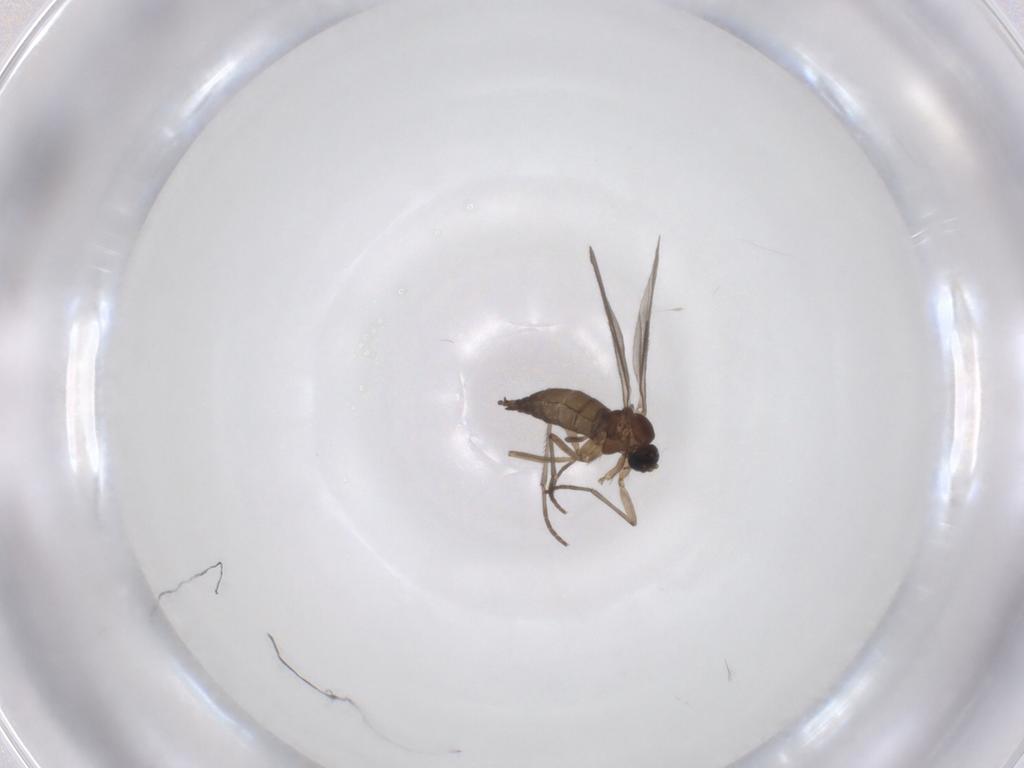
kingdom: Animalia
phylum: Arthropoda
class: Insecta
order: Diptera
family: Sciaridae
